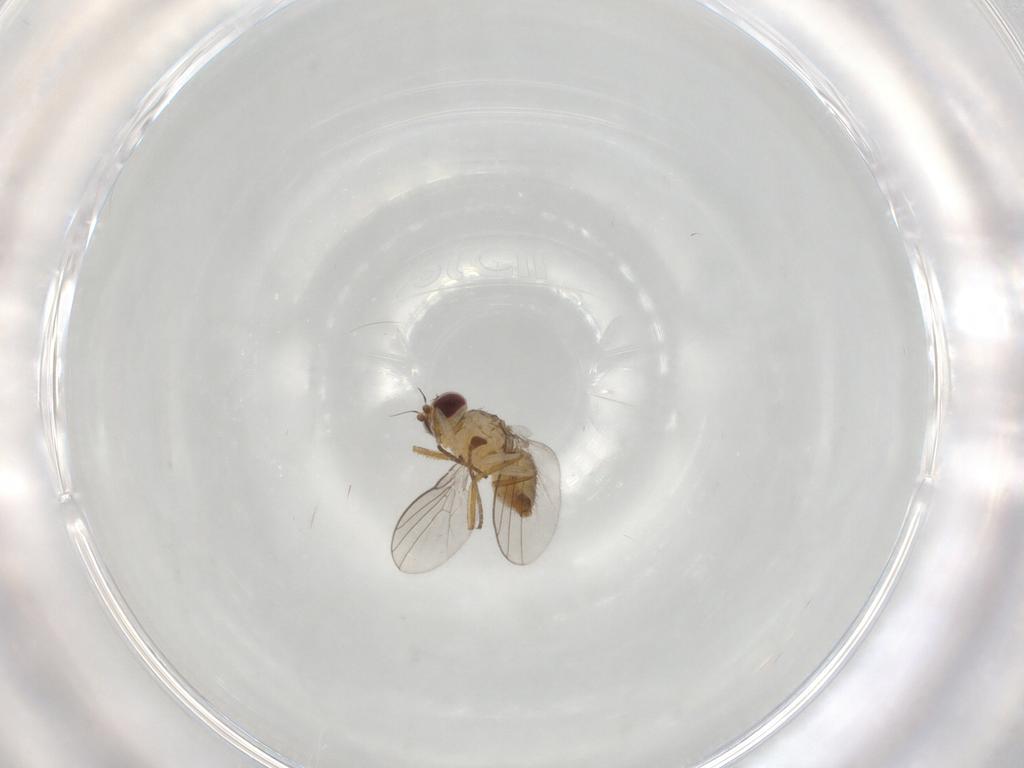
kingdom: Animalia
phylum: Arthropoda
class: Insecta
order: Diptera
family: Agromyzidae
